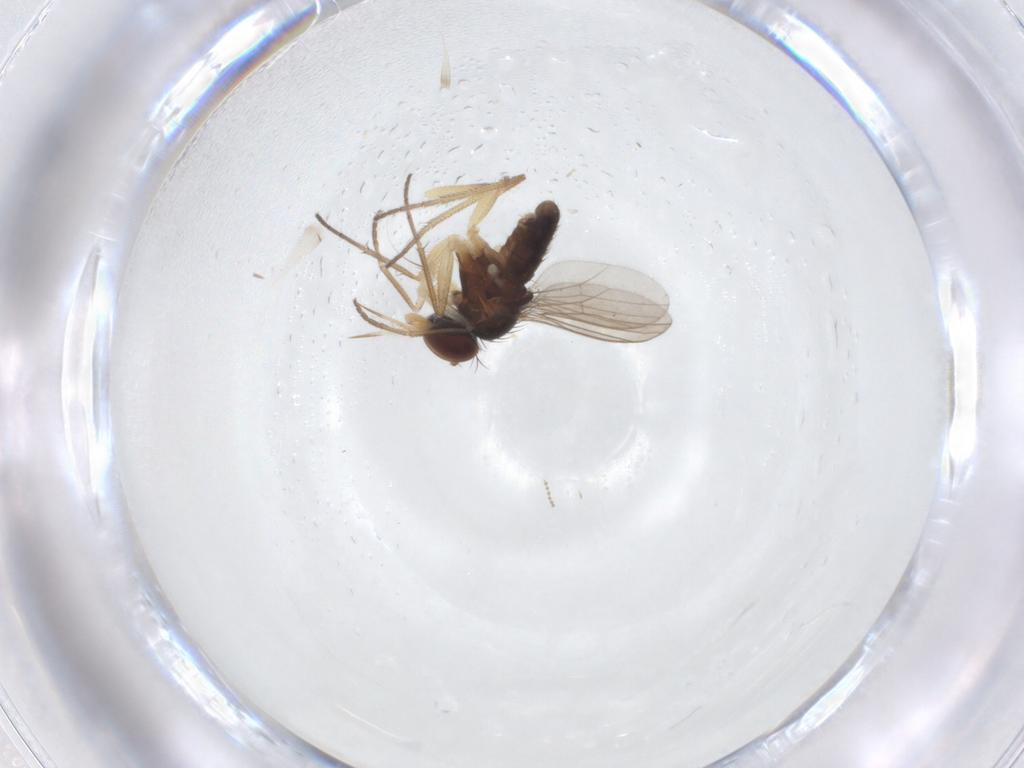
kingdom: Animalia
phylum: Arthropoda
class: Insecta
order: Diptera
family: Dolichopodidae
